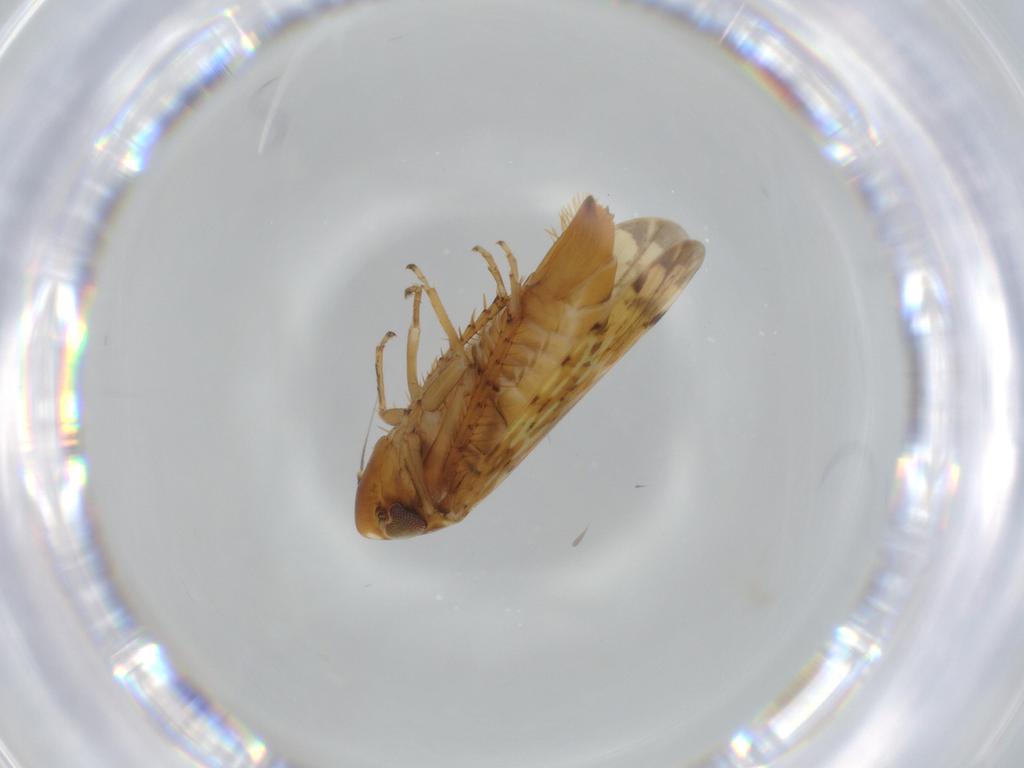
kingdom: Animalia
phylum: Arthropoda
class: Insecta
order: Hemiptera
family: Cicadellidae
